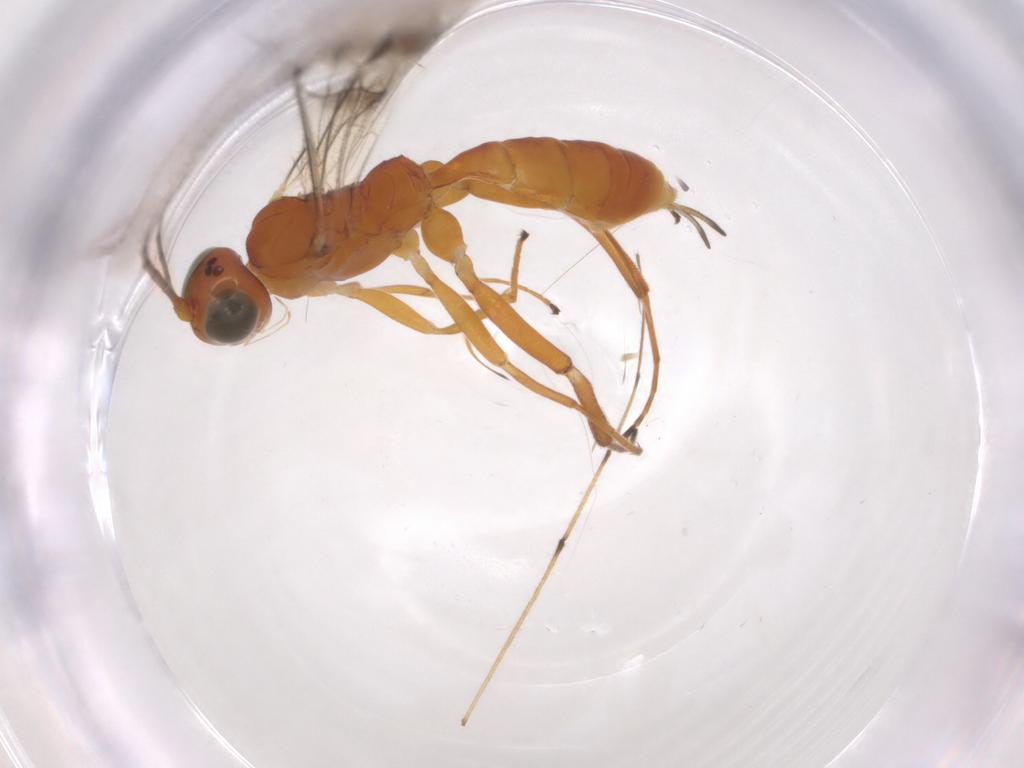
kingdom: Animalia
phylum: Arthropoda
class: Insecta
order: Hymenoptera
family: Ichneumonidae
